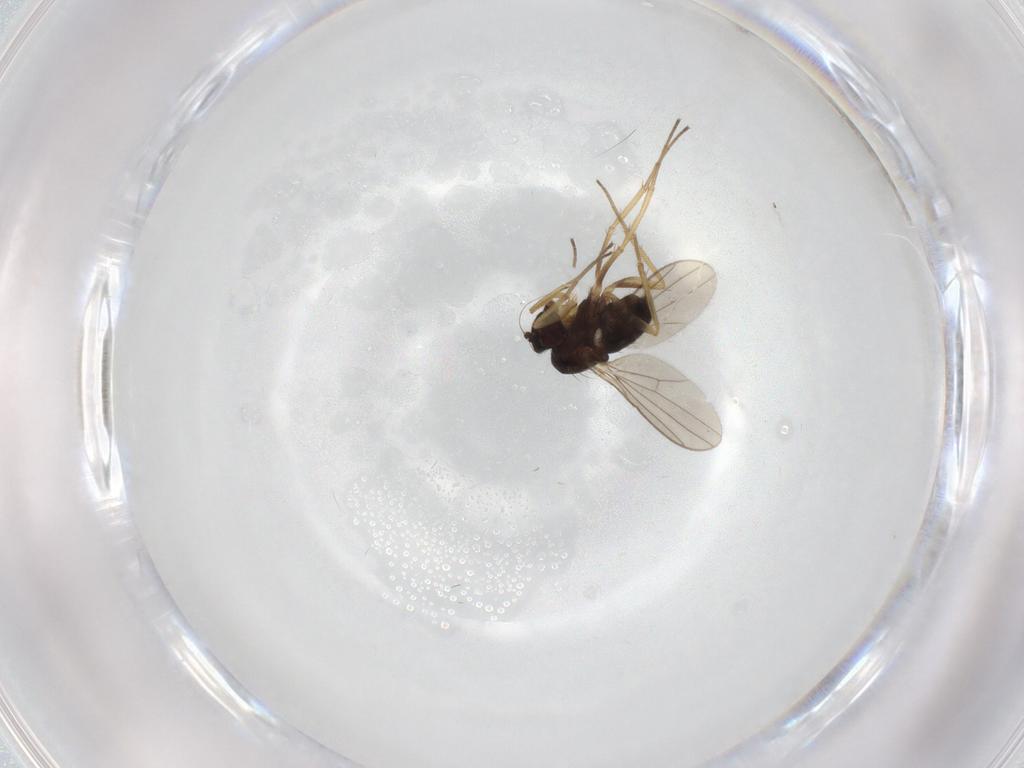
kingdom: Animalia
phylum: Arthropoda
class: Insecta
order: Diptera
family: Dolichopodidae
